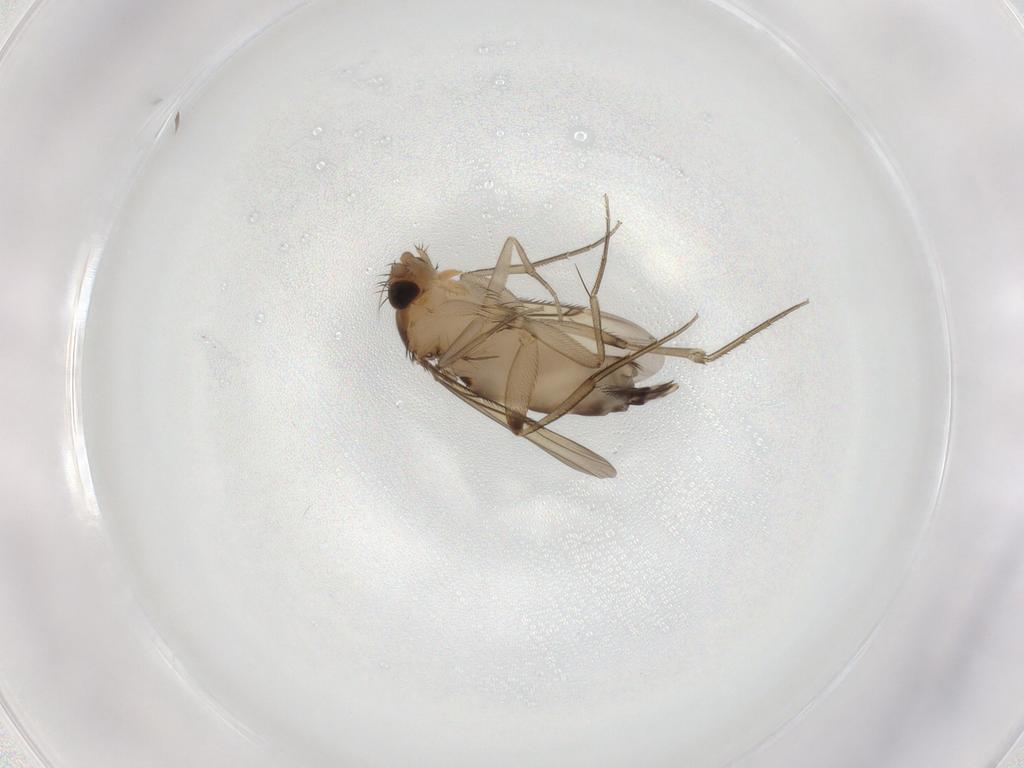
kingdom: Animalia
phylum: Arthropoda
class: Insecta
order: Diptera
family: Phoridae
